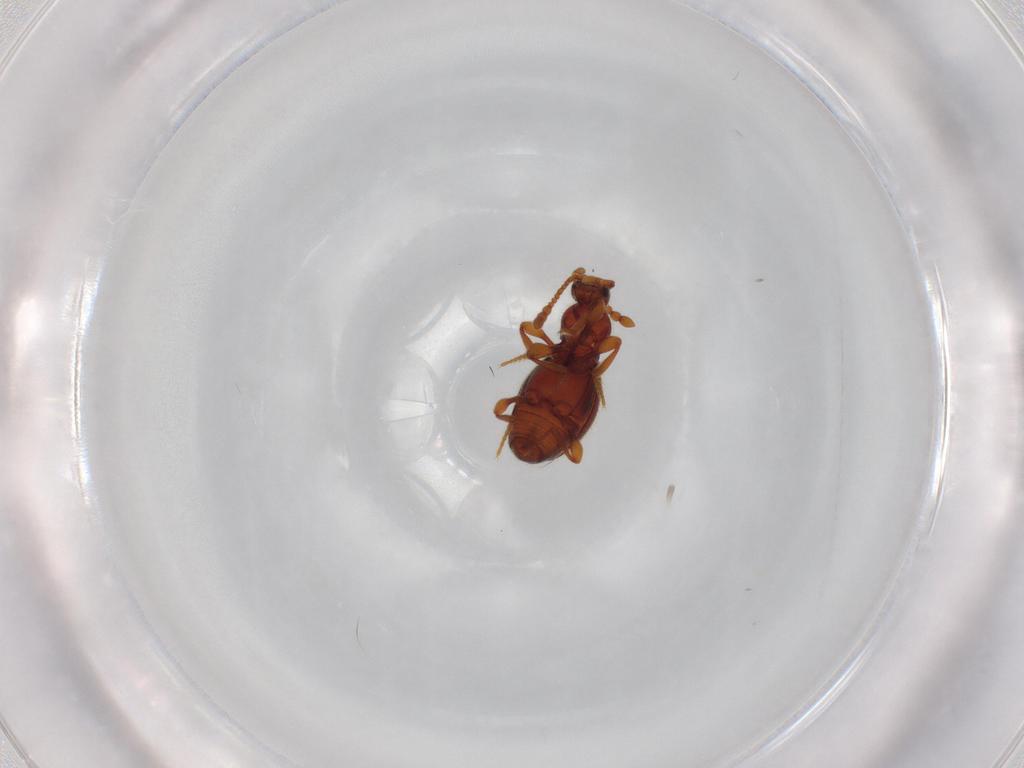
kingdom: Animalia
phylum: Arthropoda
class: Insecta
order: Coleoptera
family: Staphylinidae
